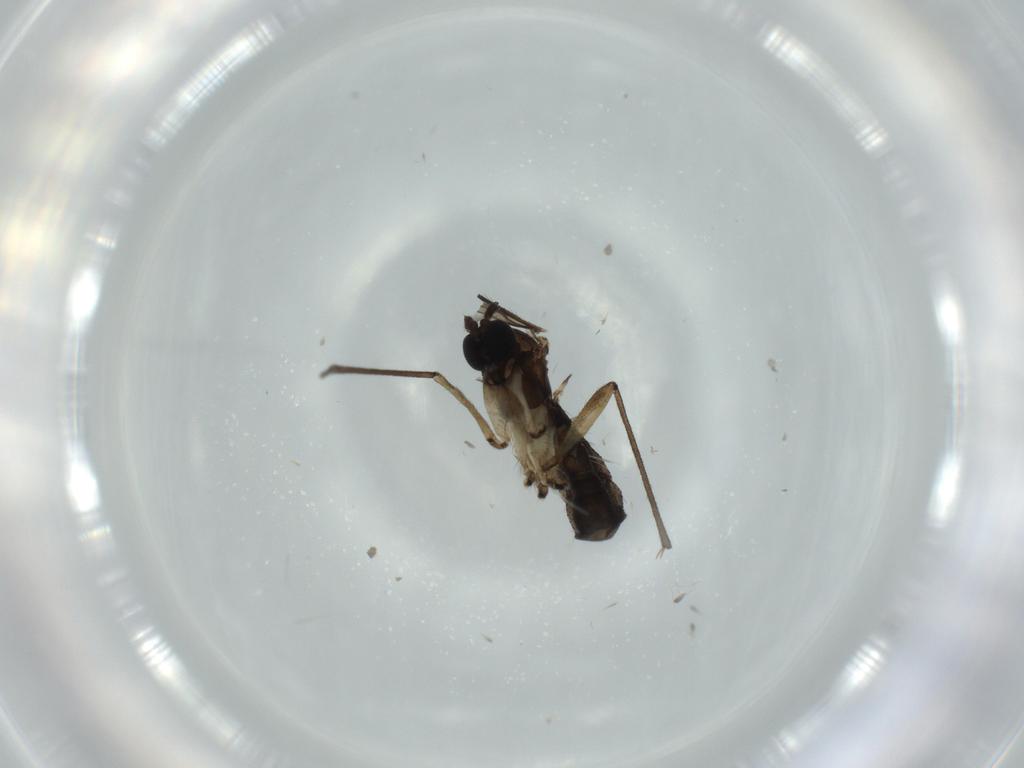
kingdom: Animalia
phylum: Arthropoda
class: Insecta
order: Diptera
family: Sciaridae
